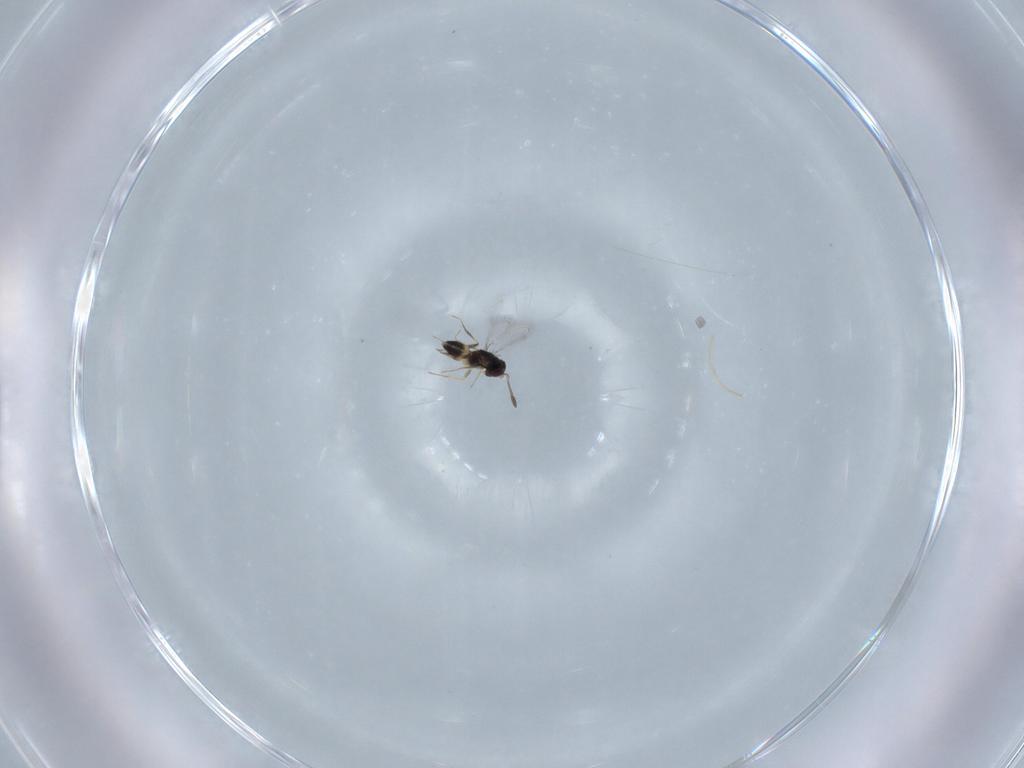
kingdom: Animalia
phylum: Arthropoda
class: Insecta
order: Hymenoptera
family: Mymaridae
